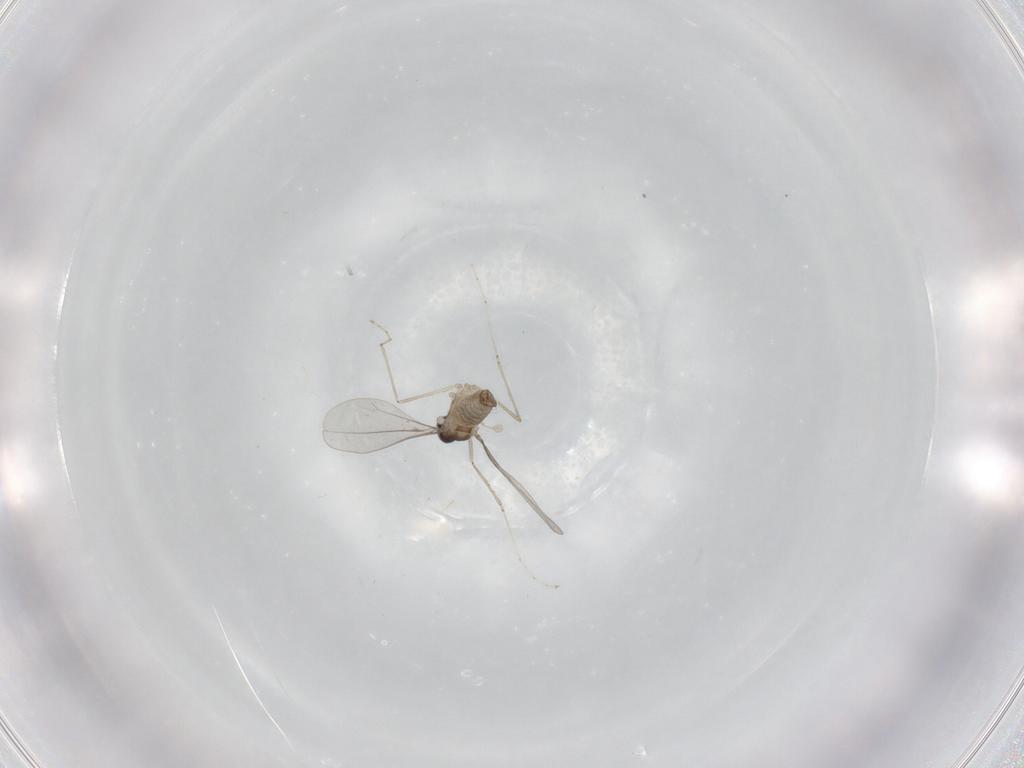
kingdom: Animalia
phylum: Arthropoda
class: Insecta
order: Diptera
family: Cecidomyiidae
